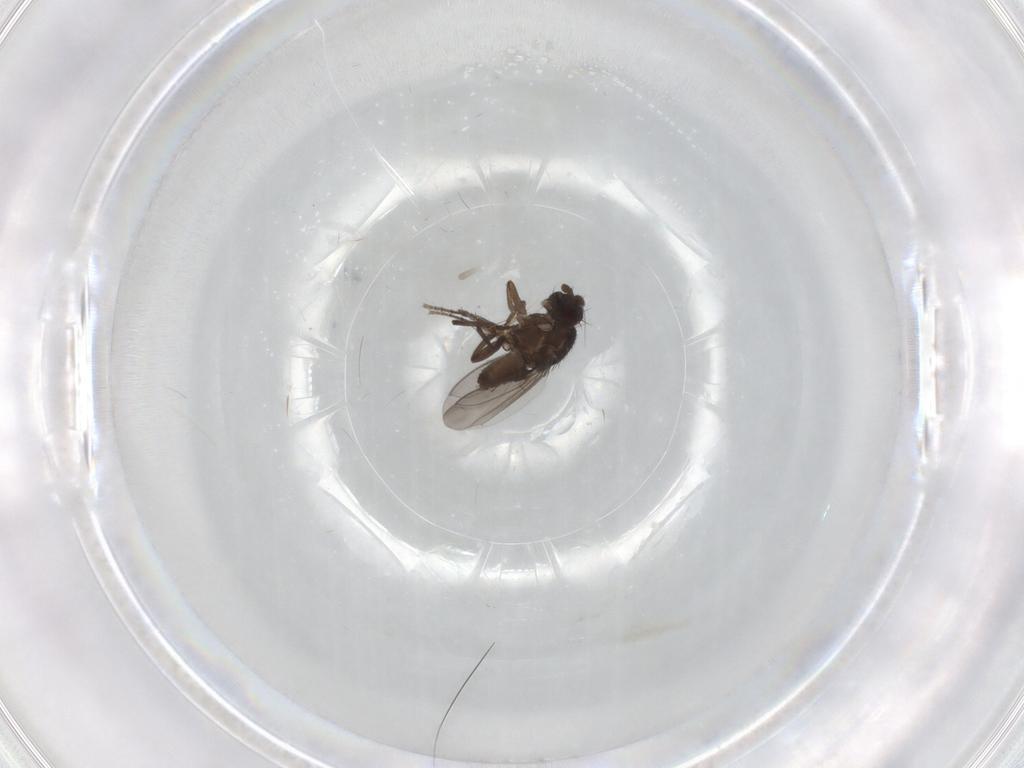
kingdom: Animalia
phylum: Arthropoda
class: Insecta
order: Diptera
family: Sphaeroceridae
